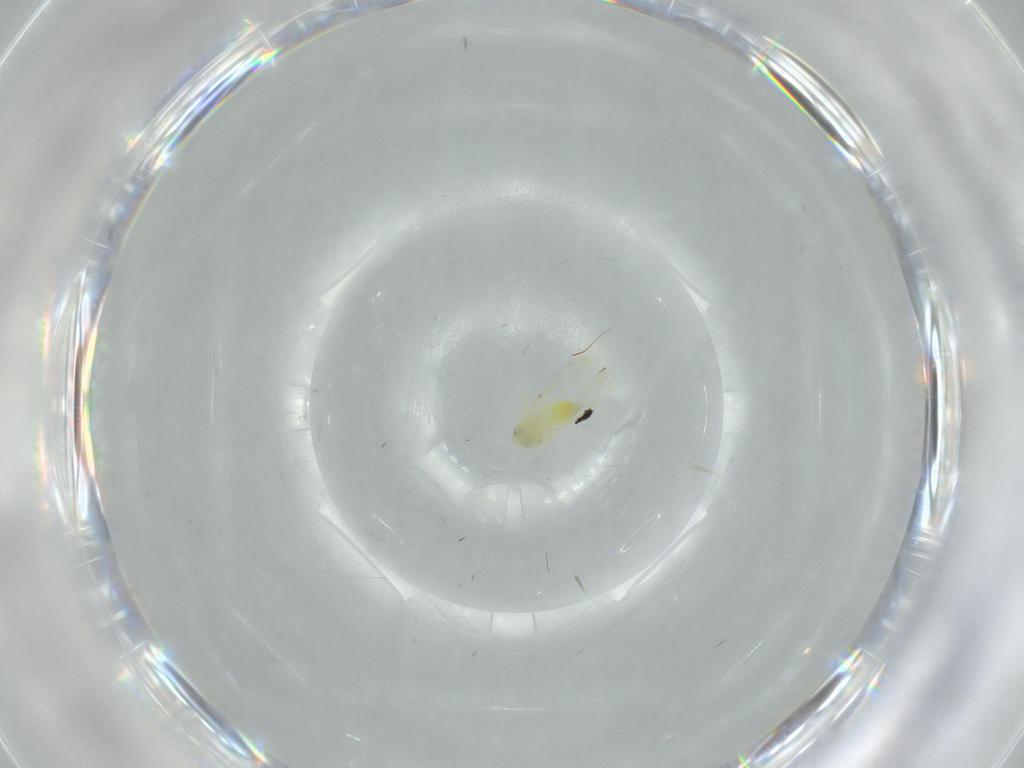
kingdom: Animalia
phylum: Arthropoda
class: Insecta
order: Hemiptera
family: Aleyrodidae
